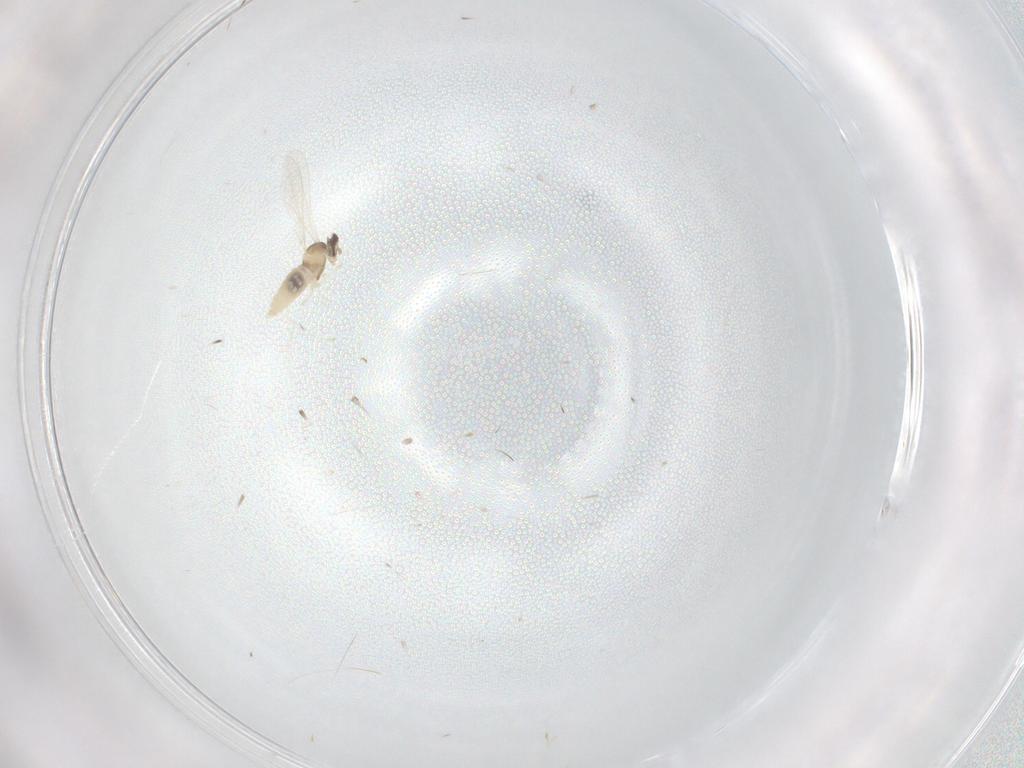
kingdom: Animalia
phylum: Arthropoda
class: Insecta
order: Diptera
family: Cecidomyiidae
